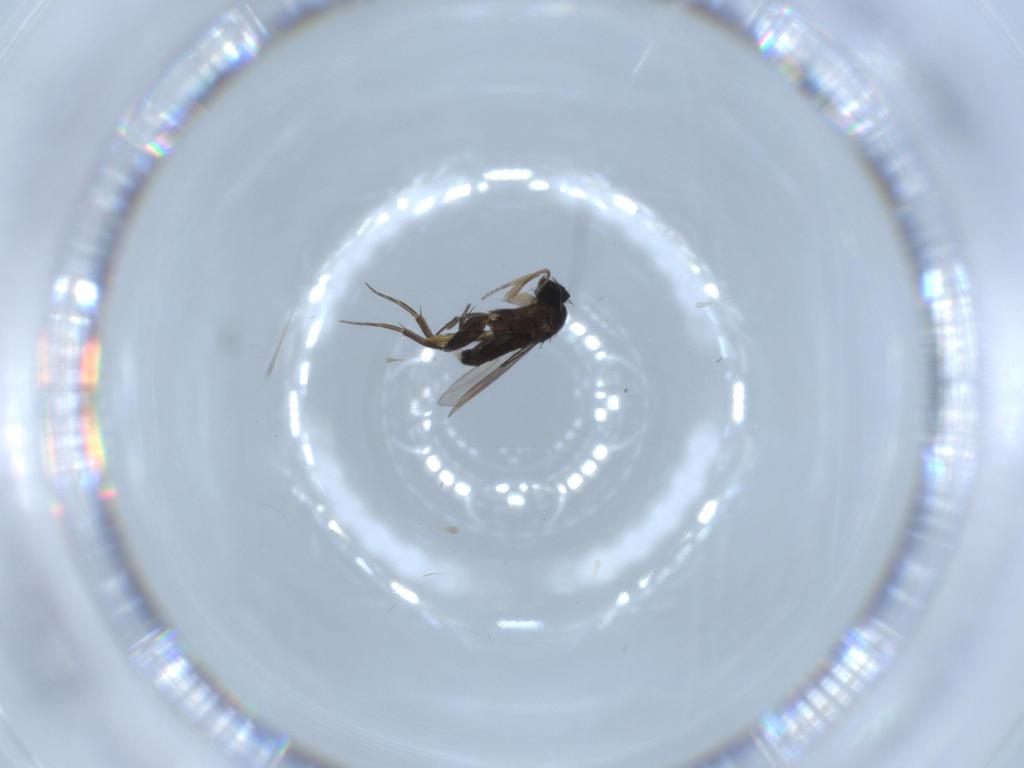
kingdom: Animalia
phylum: Arthropoda
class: Insecta
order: Diptera
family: Phoridae
